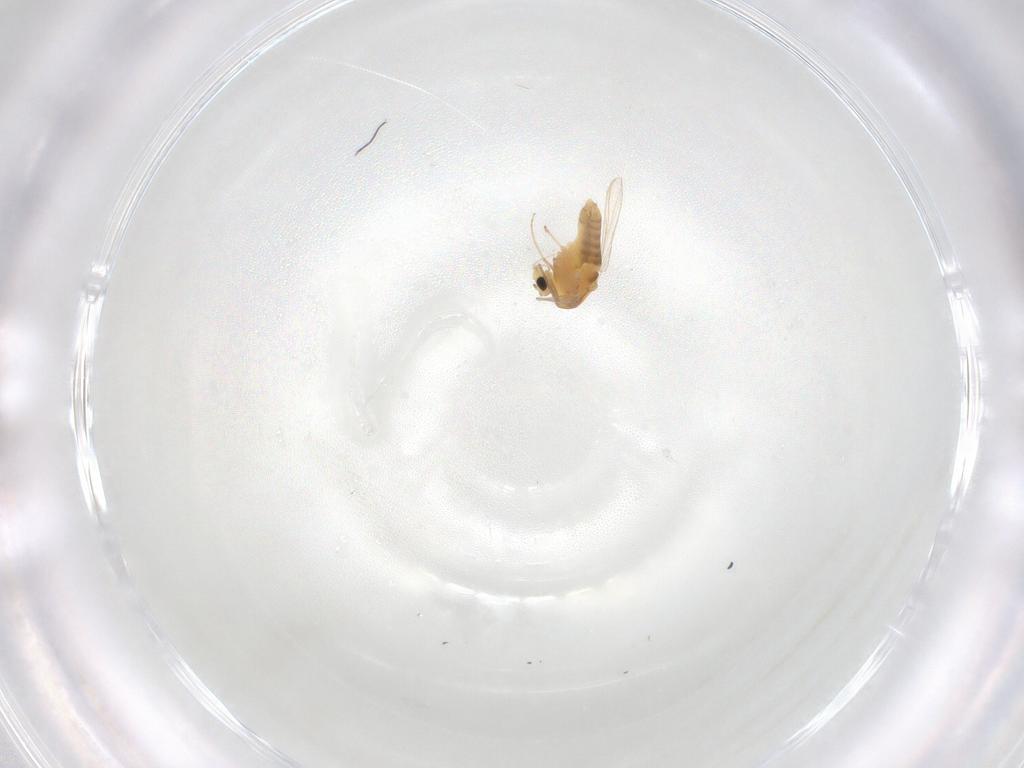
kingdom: Animalia
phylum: Arthropoda
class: Insecta
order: Diptera
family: Chironomidae
